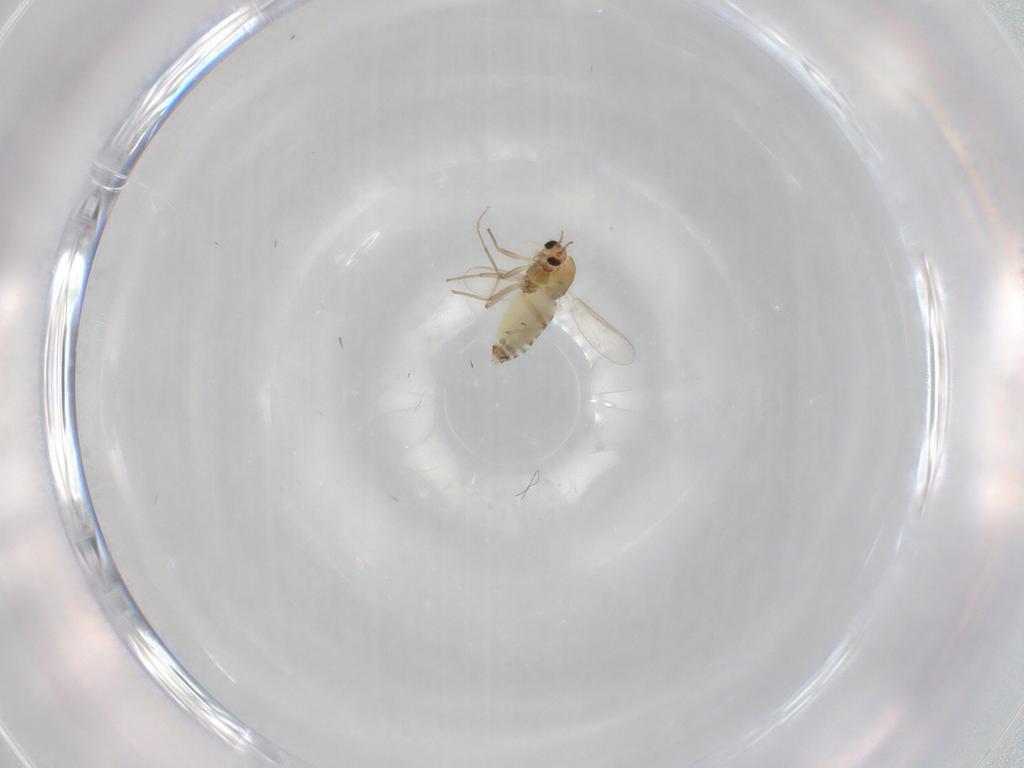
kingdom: Animalia
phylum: Arthropoda
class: Insecta
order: Diptera
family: Chironomidae
